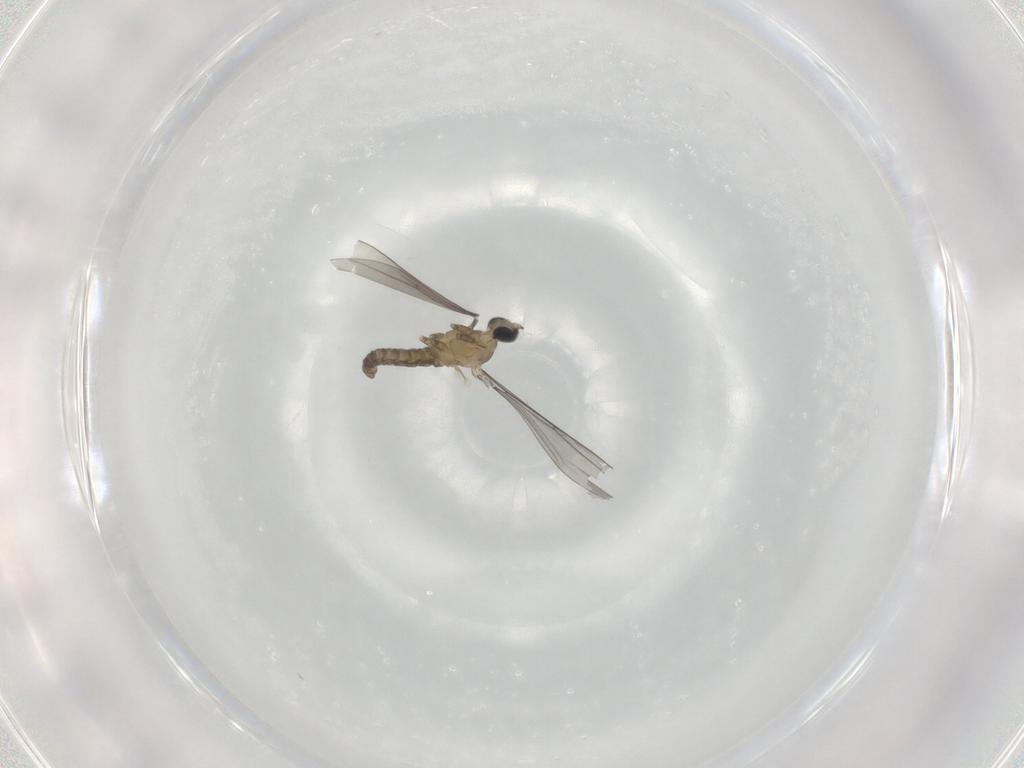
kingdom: Animalia
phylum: Arthropoda
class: Insecta
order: Diptera
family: Cecidomyiidae
